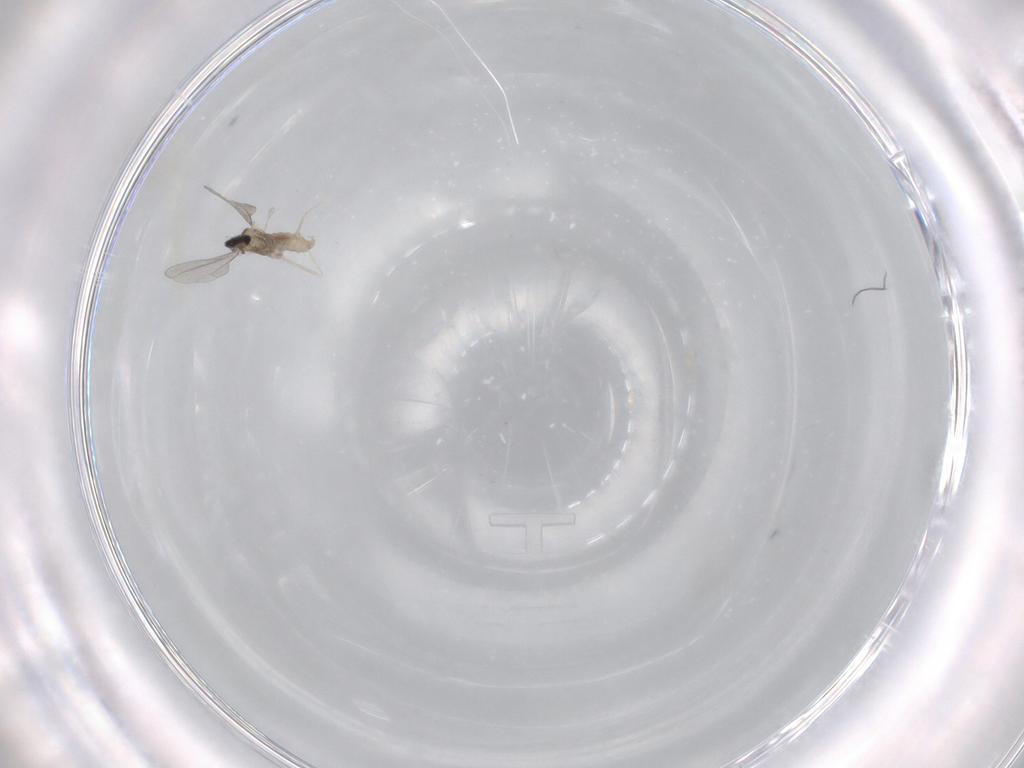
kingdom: Animalia
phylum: Arthropoda
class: Insecta
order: Diptera
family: Cecidomyiidae
